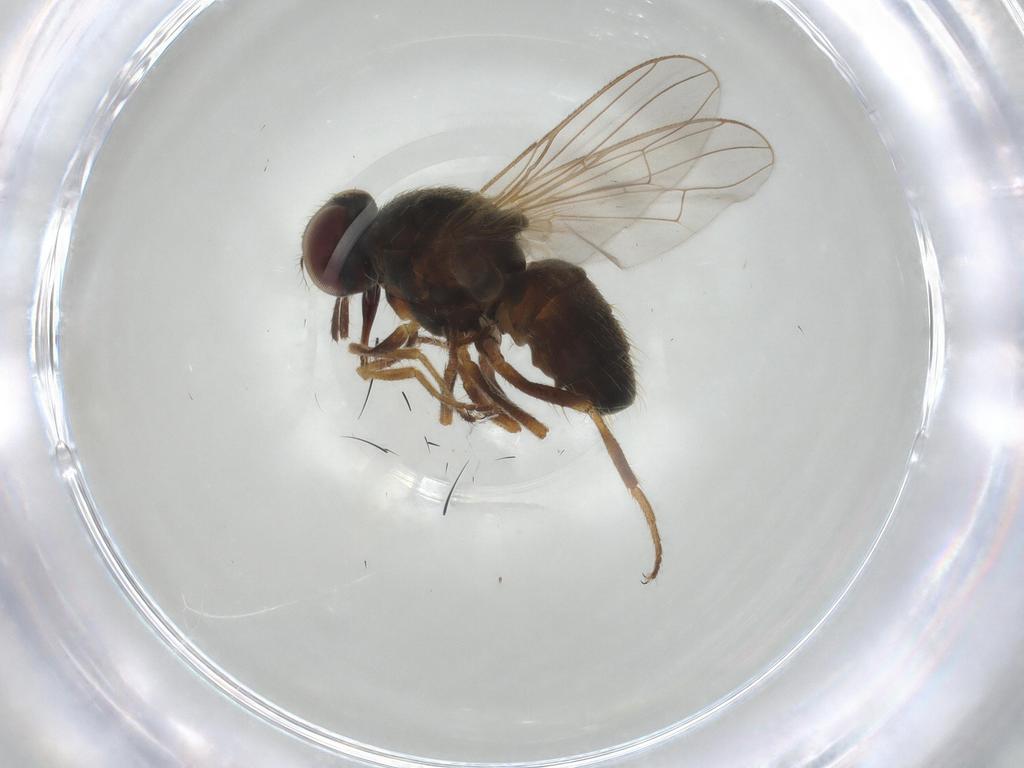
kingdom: Animalia
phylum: Arthropoda
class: Insecta
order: Diptera
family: Muscidae
